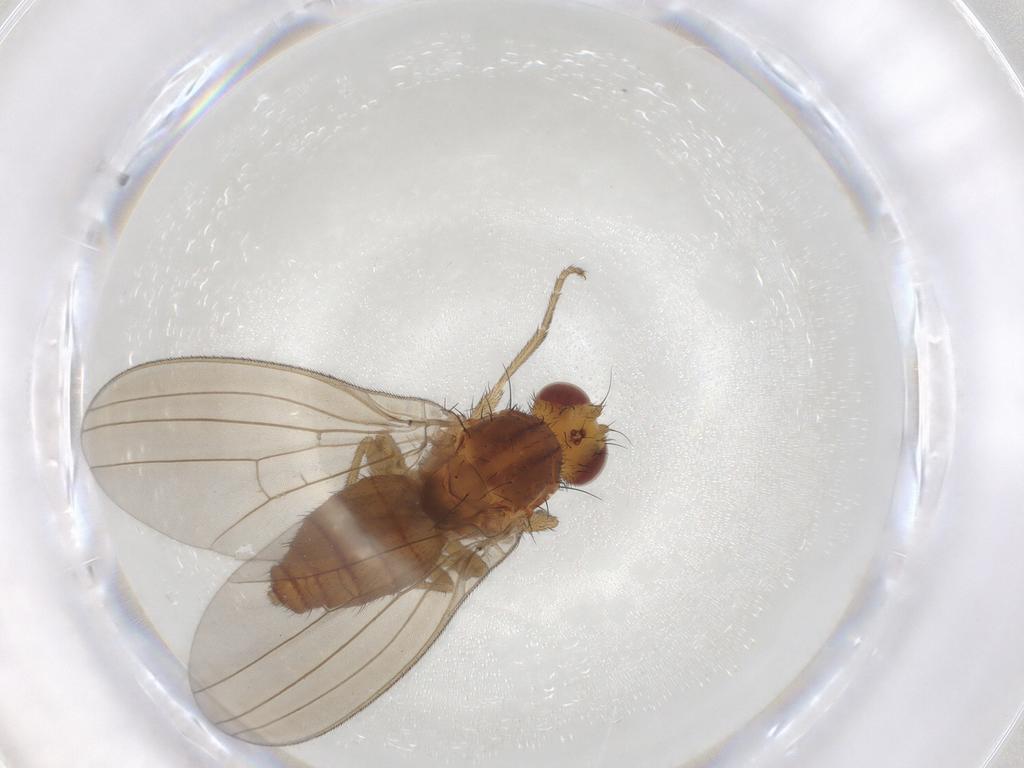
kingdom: Animalia
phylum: Arthropoda
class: Insecta
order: Diptera
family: Natalimyzidae
